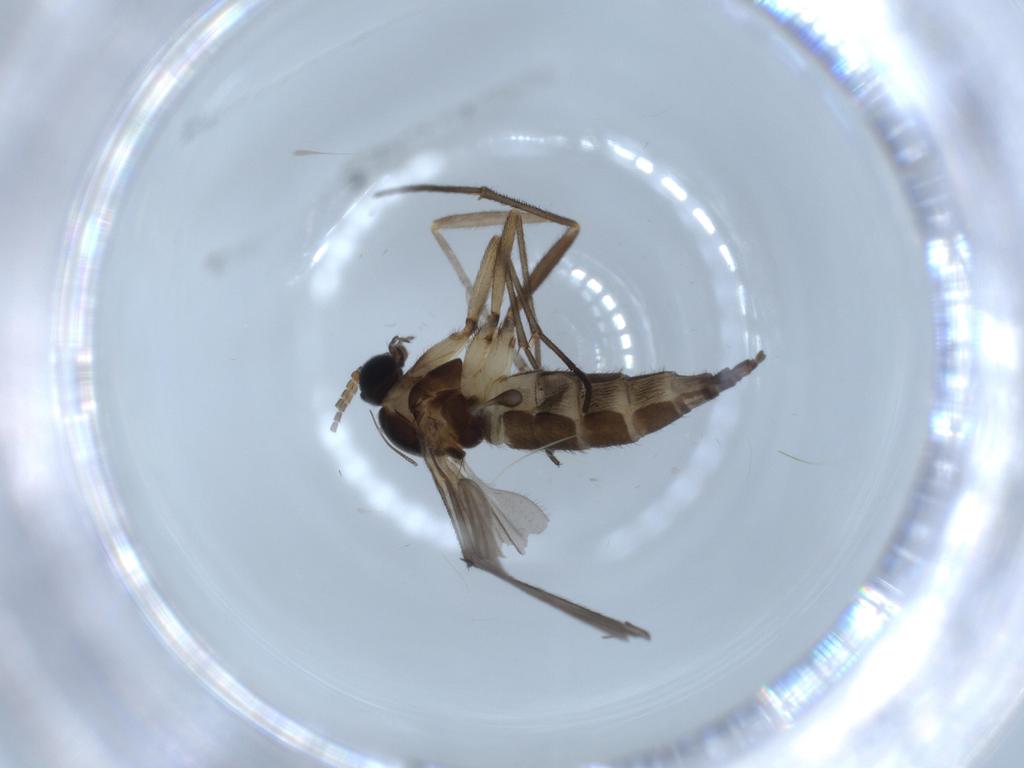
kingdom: Animalia
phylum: Arthropoda
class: Insecta
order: Diptera
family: Sciaridae
